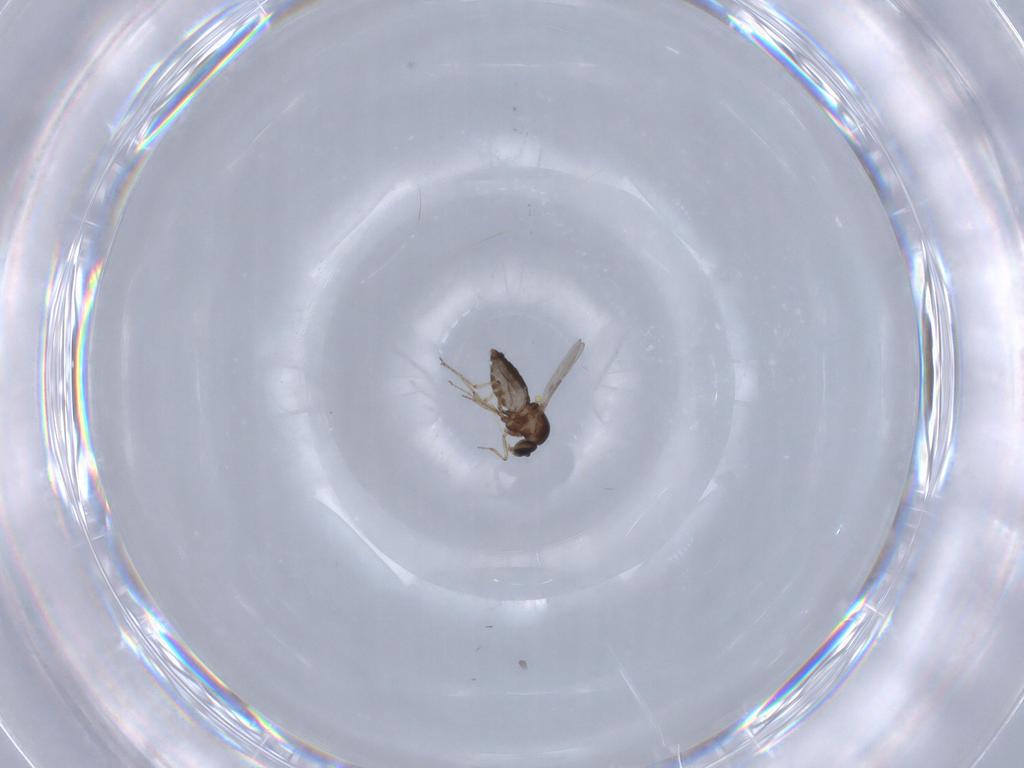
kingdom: Animalia
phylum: Arthropoda
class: Insecta
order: Diptera
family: Ceratopogonidae
